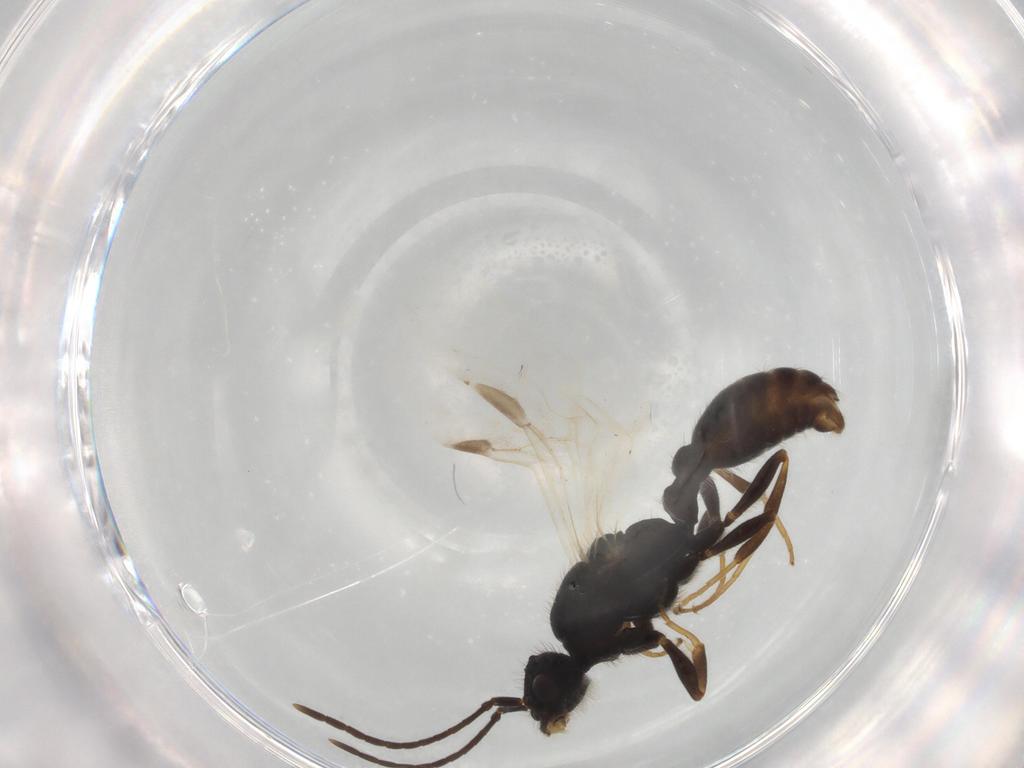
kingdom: Animalia
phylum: Arthropoda
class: Insecta
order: Hymenoptera
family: Formicidae
